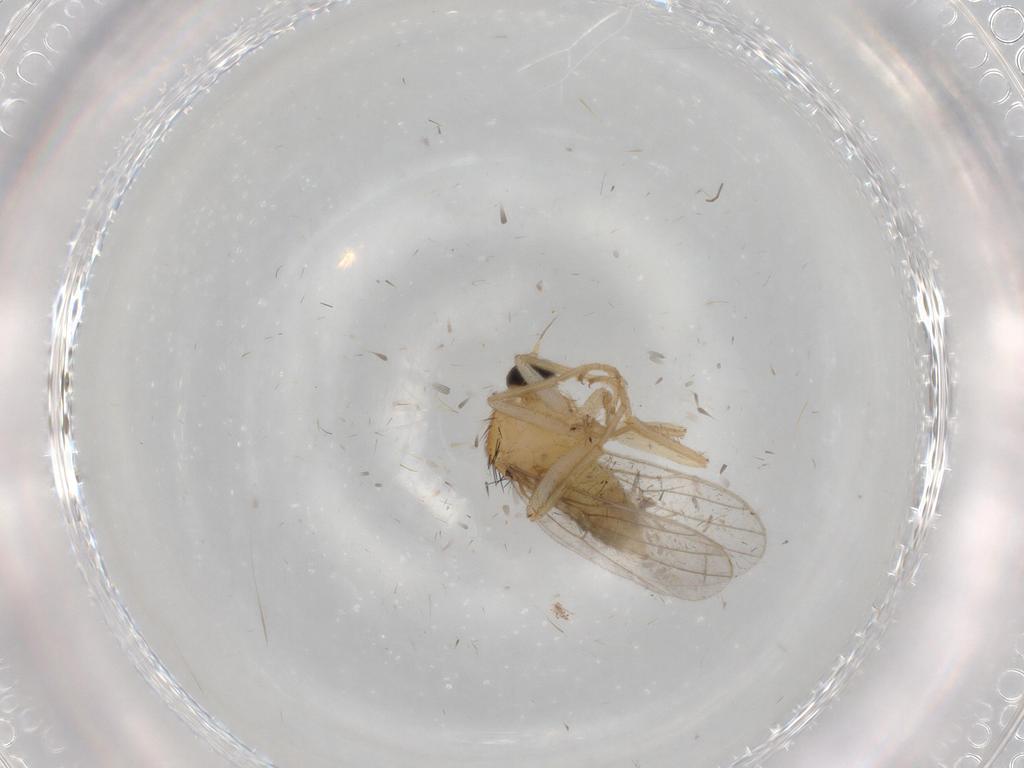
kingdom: Animalia
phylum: Arthropoda
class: Insecta
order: Diptera
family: Hybotidae
